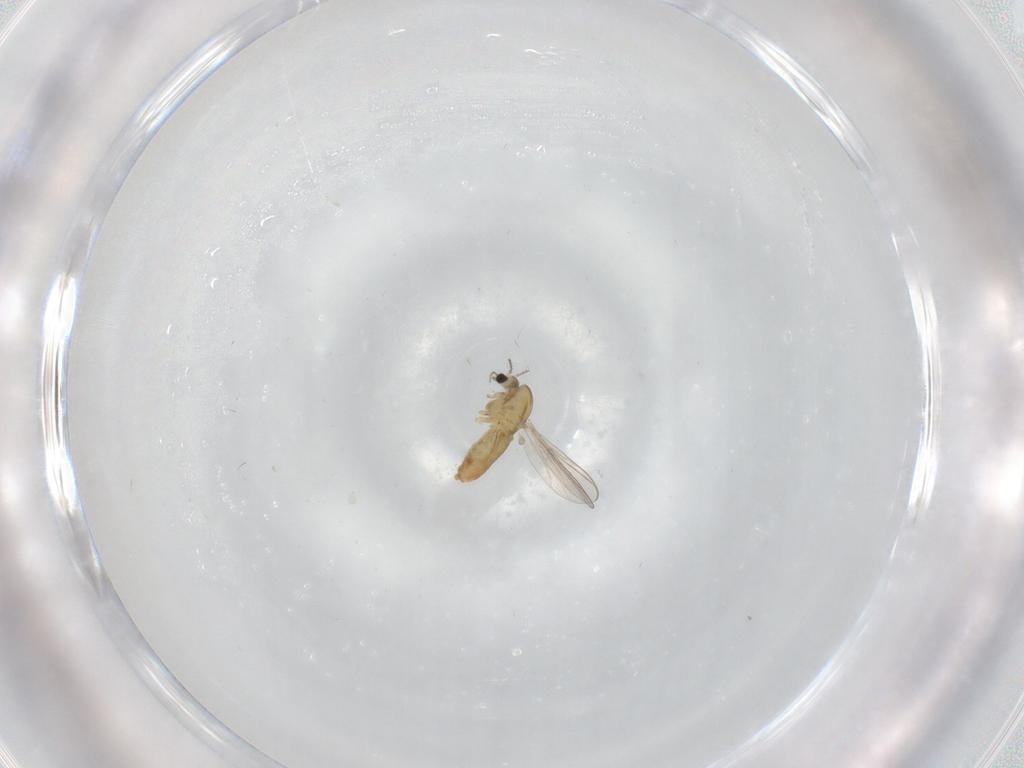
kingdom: Animalia
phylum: Arthropoda
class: Insecta
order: Diptera
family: Chironomidae
